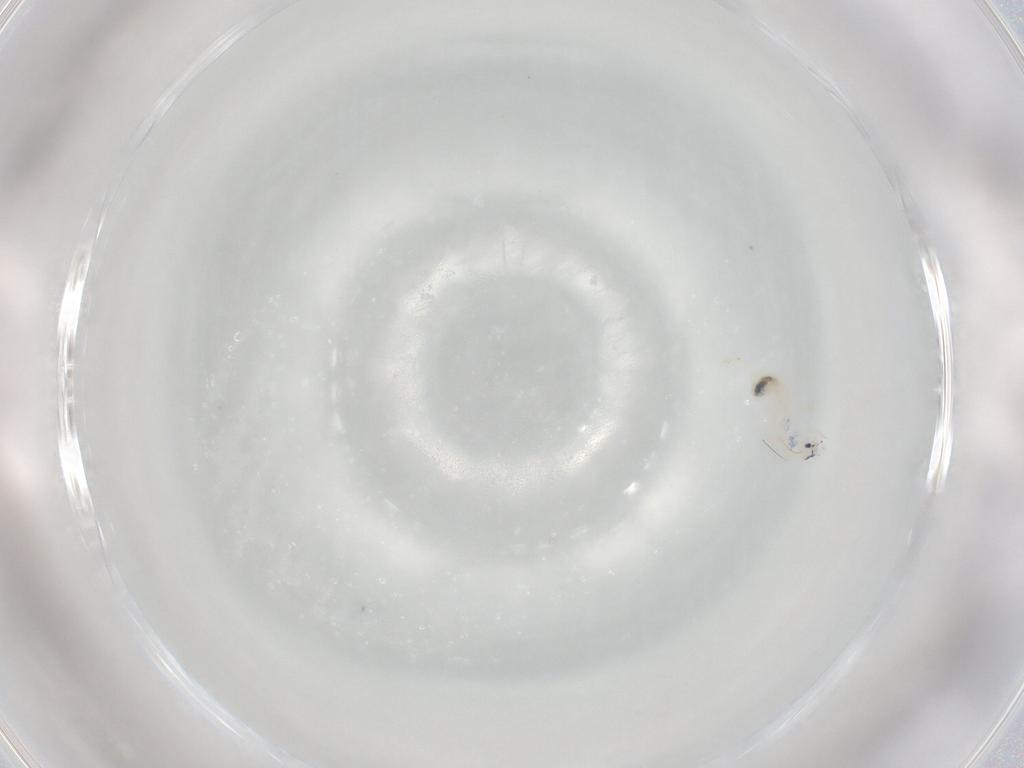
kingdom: Animalia
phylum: Arthropoda
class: Collembola
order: Entomobryomorpha
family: Entomobryidae
